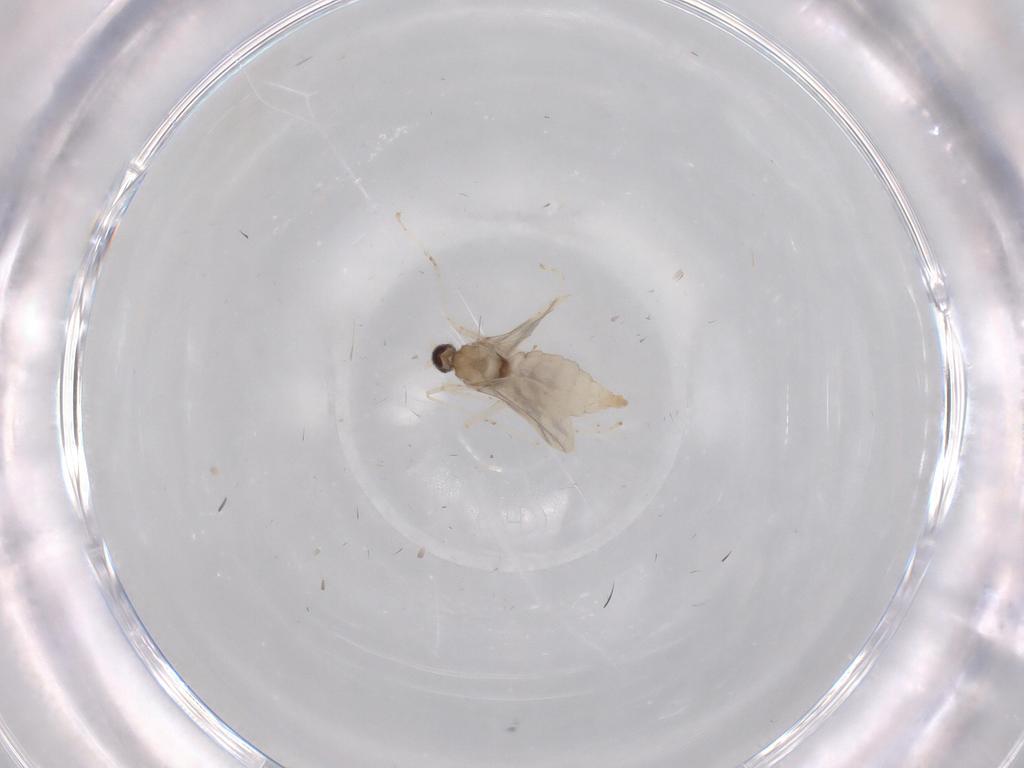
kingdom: Animalia
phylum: Arthropoda
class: Insecta
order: Diptera
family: Cecidomyiidae
